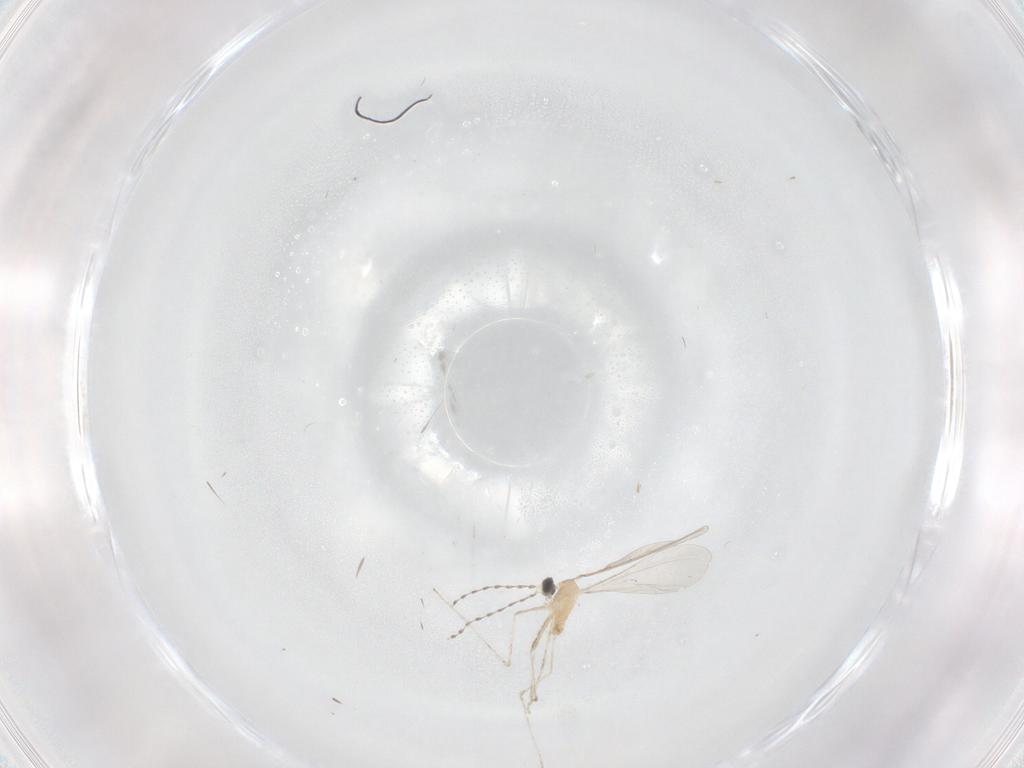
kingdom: Animalia
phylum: Arthropoda
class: Insecta
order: Diptera
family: Cecidomyiidae
